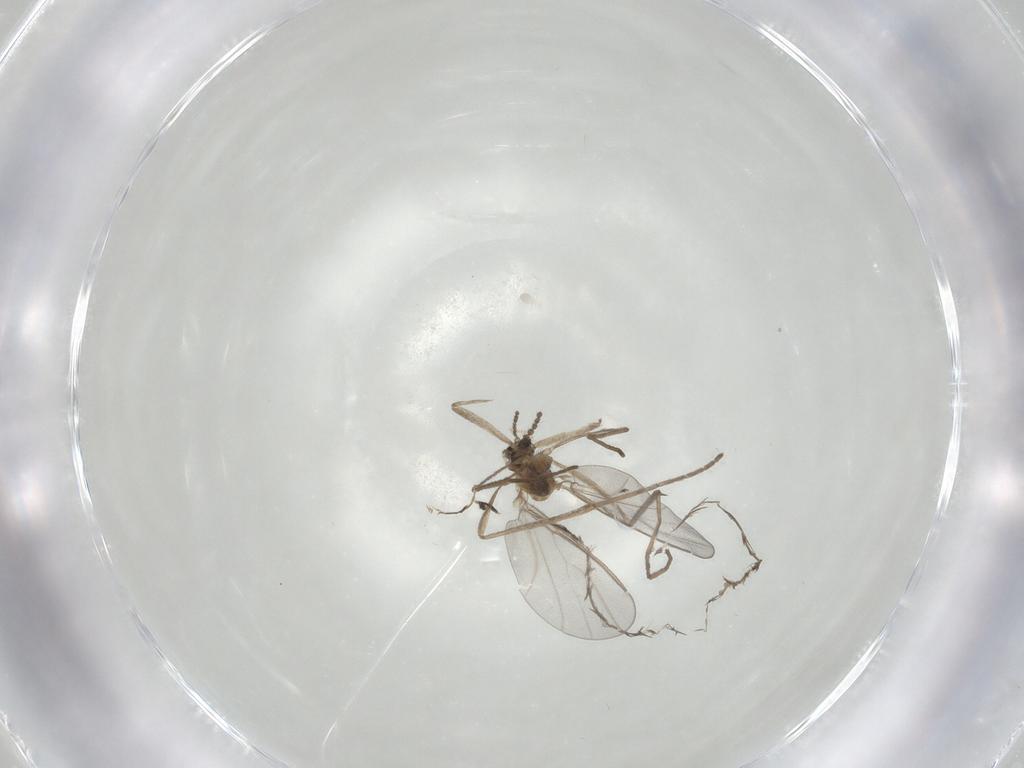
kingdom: Animalia
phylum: Arthropoda
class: Insecta
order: Diptera
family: Cecidomyiidae
